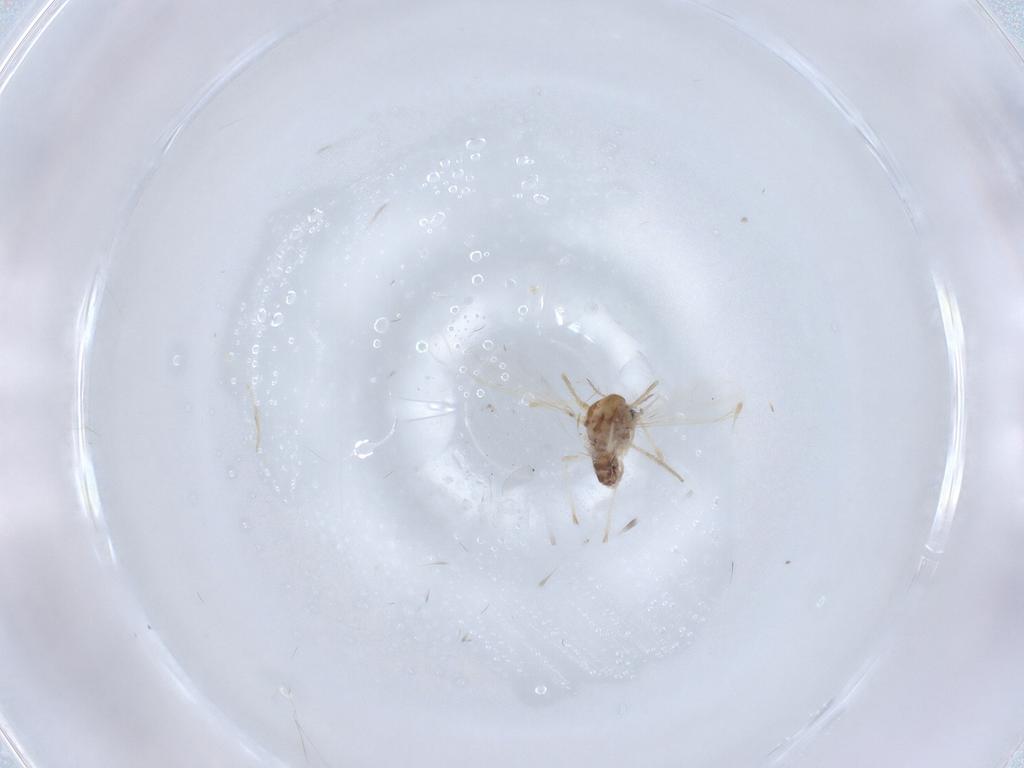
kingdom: Animalia
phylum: Arthropoda
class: Insecta
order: Diptera
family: Chironomidae
